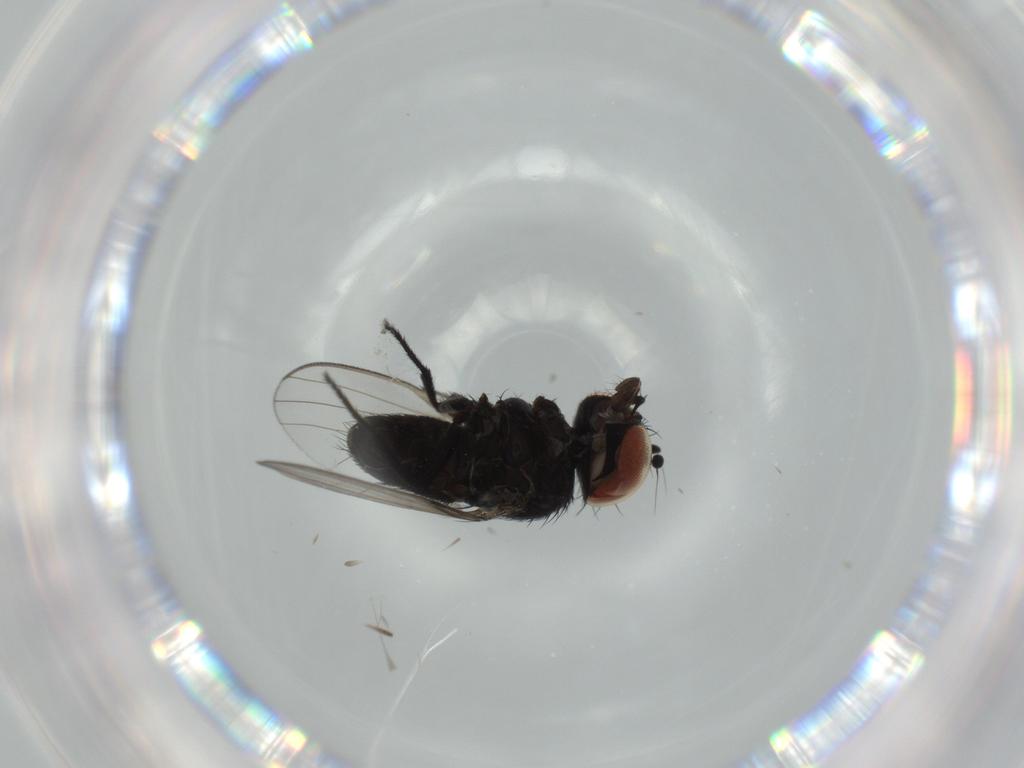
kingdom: Animalia
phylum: Arthropoda
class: Insecta
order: Diptera
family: Milichiidae
